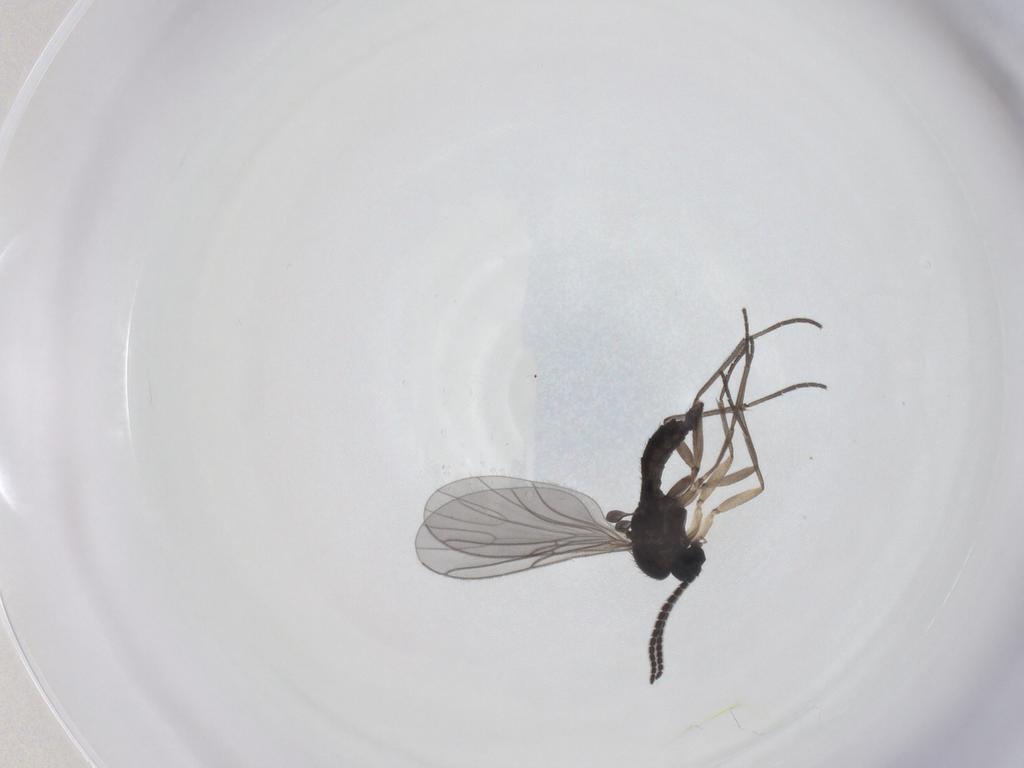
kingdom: Animalia
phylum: Arthropoda
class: Insecta
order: Diptera
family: Sciaridae
